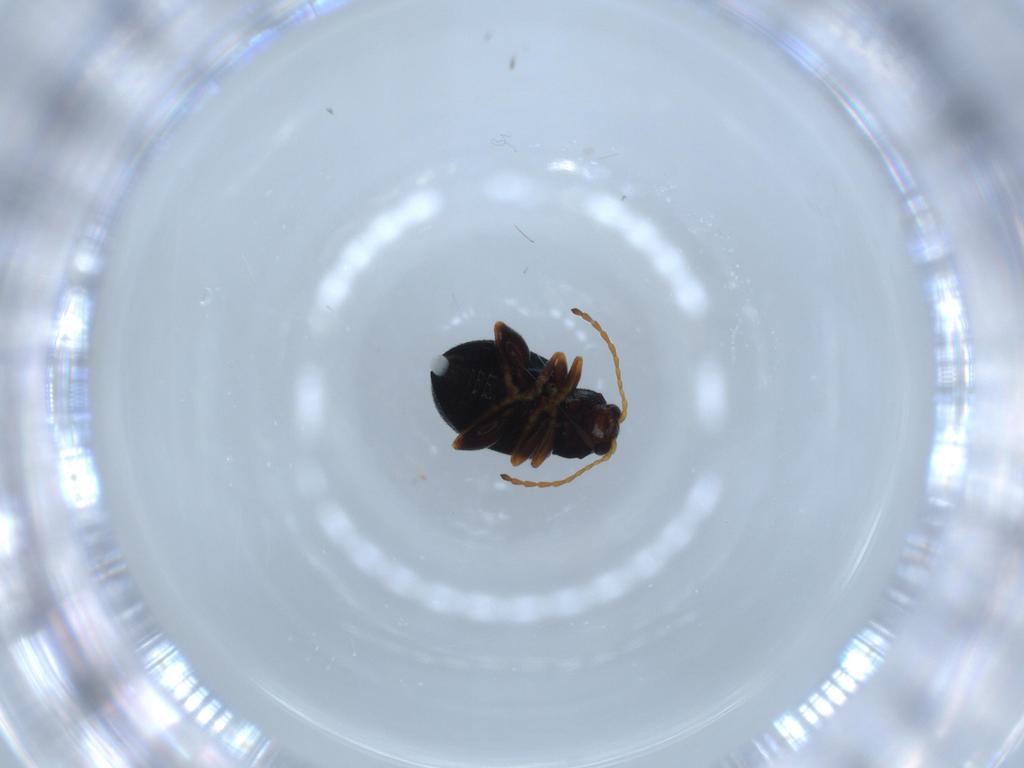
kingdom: Animalia
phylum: Arthropoda
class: Insecta
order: Coleoptera
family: Chrysomelidae
